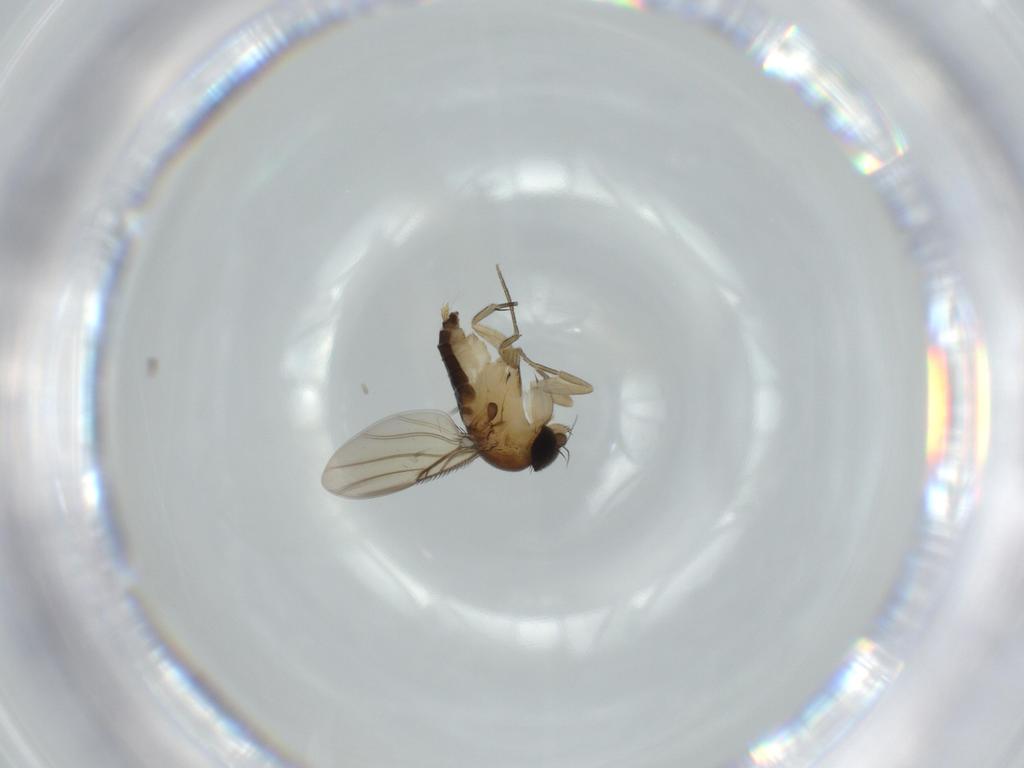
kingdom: Animalia
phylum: Arthropoda
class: Insecta
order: Diptera
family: Phoridae
